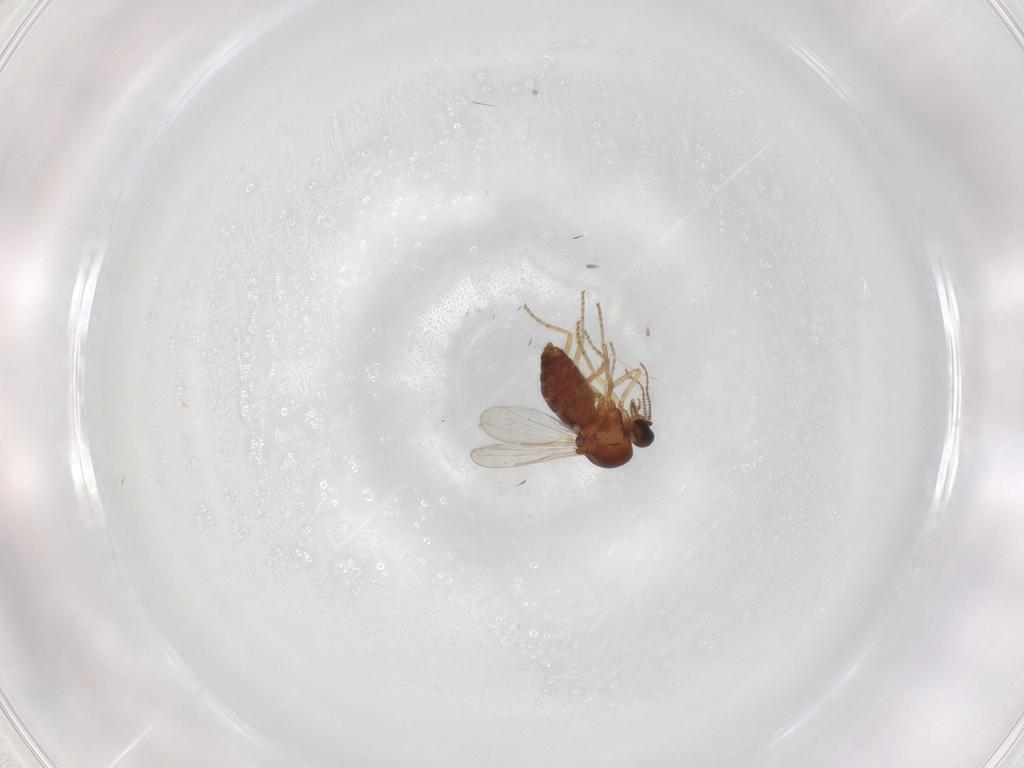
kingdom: Animalia
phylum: Arthropoda
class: Insecta
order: Diptera
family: Ceratopogonidae
